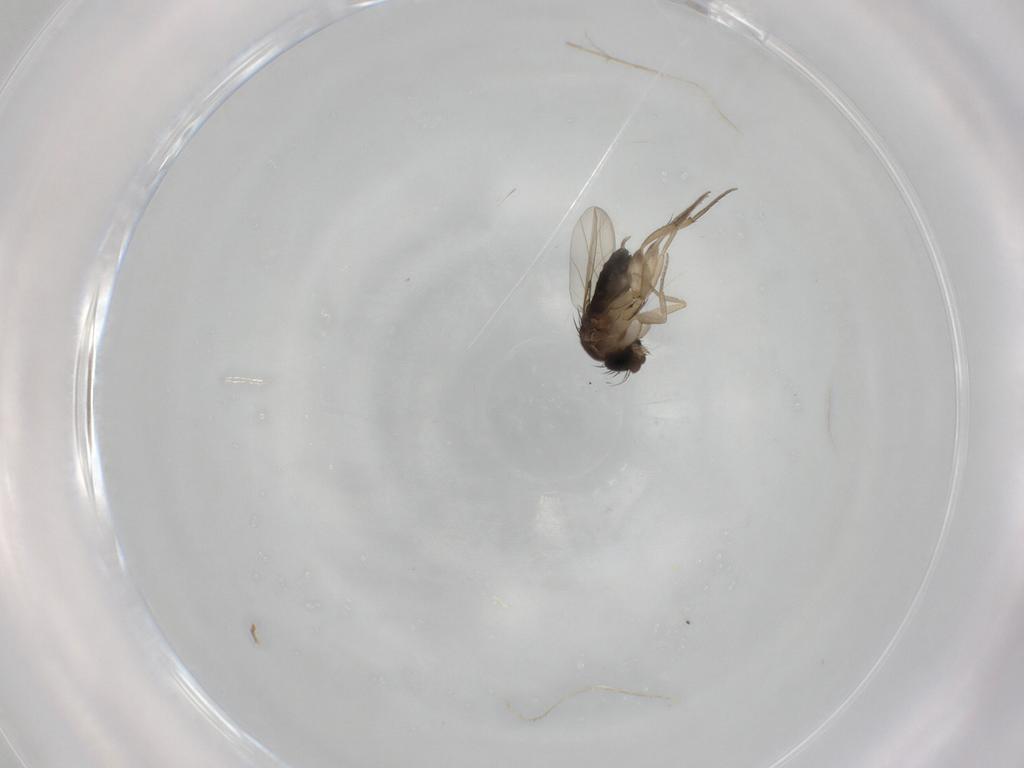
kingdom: Animalia
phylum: Arthropoda
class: Insecta
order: Diptera
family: Phoridae
